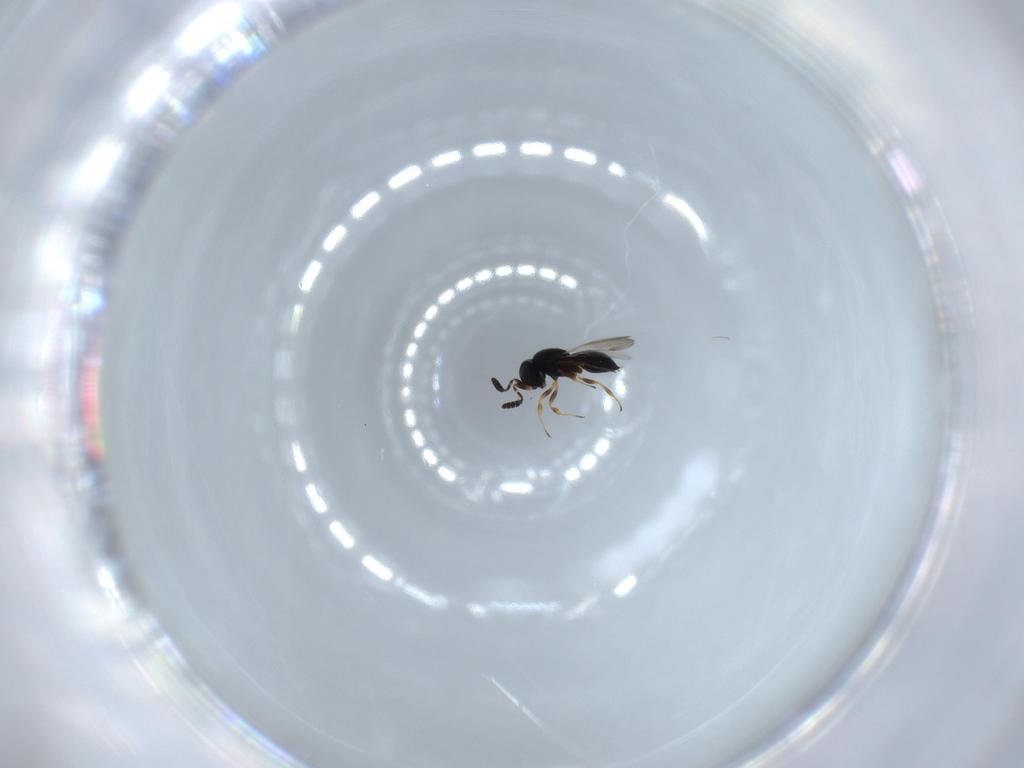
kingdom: Animalia
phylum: Arthropoda
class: Insecta
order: Hymenoptera
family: Scelionidae
